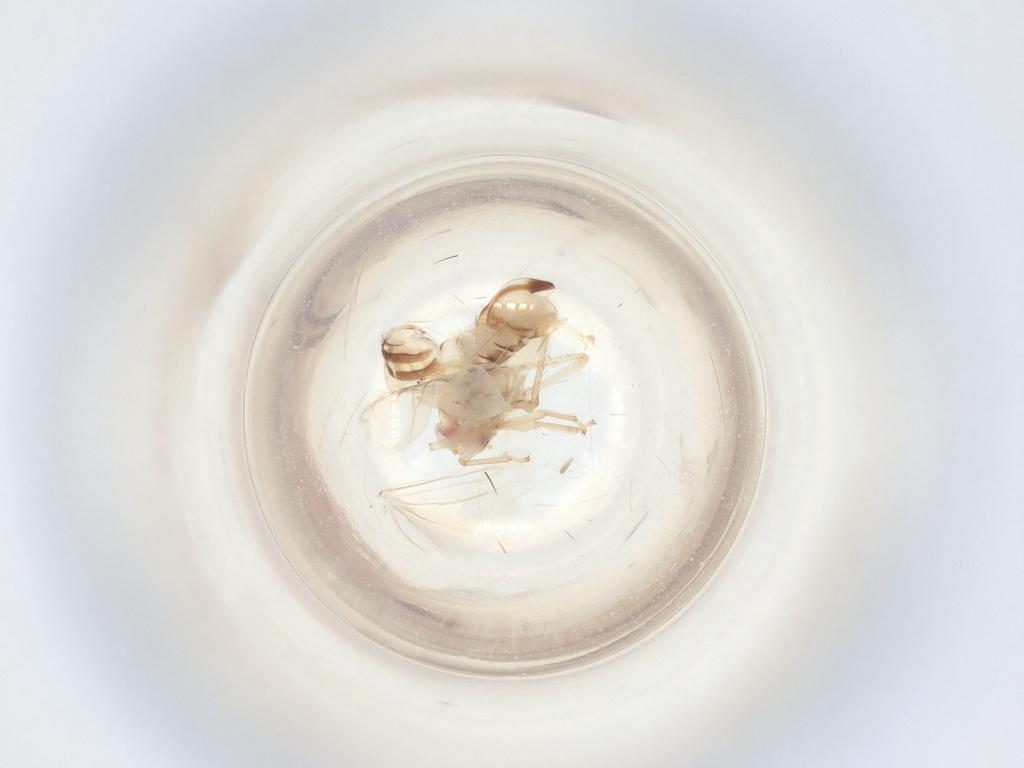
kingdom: Animalia
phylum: Arthropoda
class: Insecta
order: Hemiptera
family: Cicadellidae
